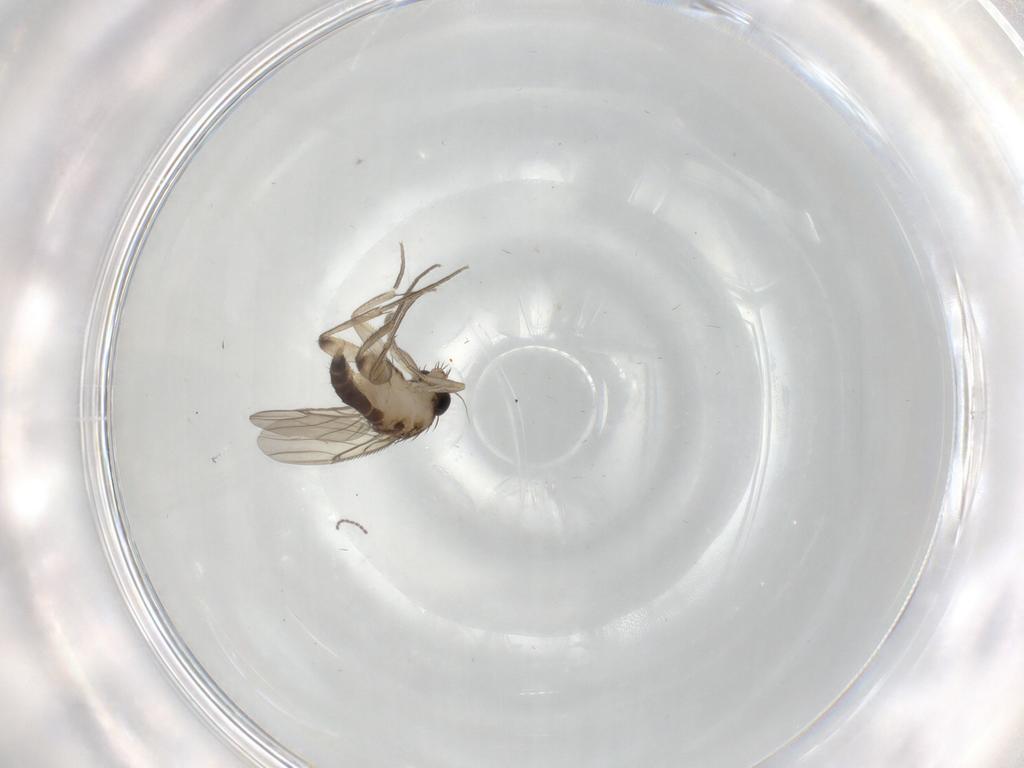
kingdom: Animalia
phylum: Arthropoda
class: Insecta
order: Diptera
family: Phoridae
